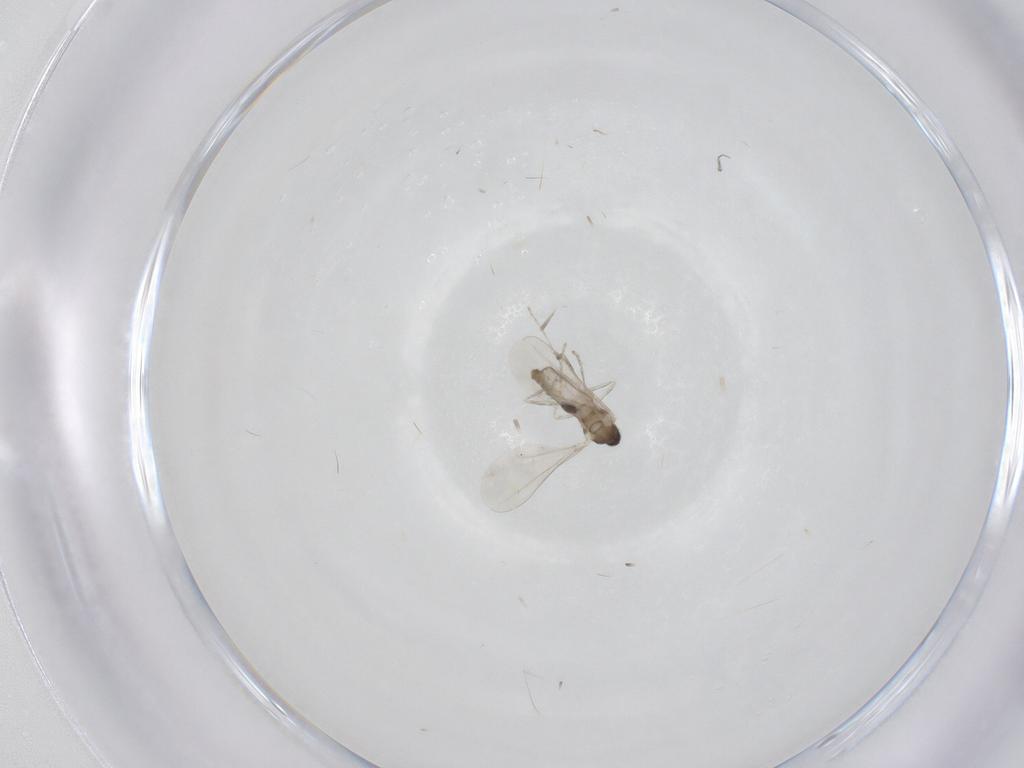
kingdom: Animalia
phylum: Arthropoda
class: Insecta
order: Diptera
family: Cecidomyiidae
